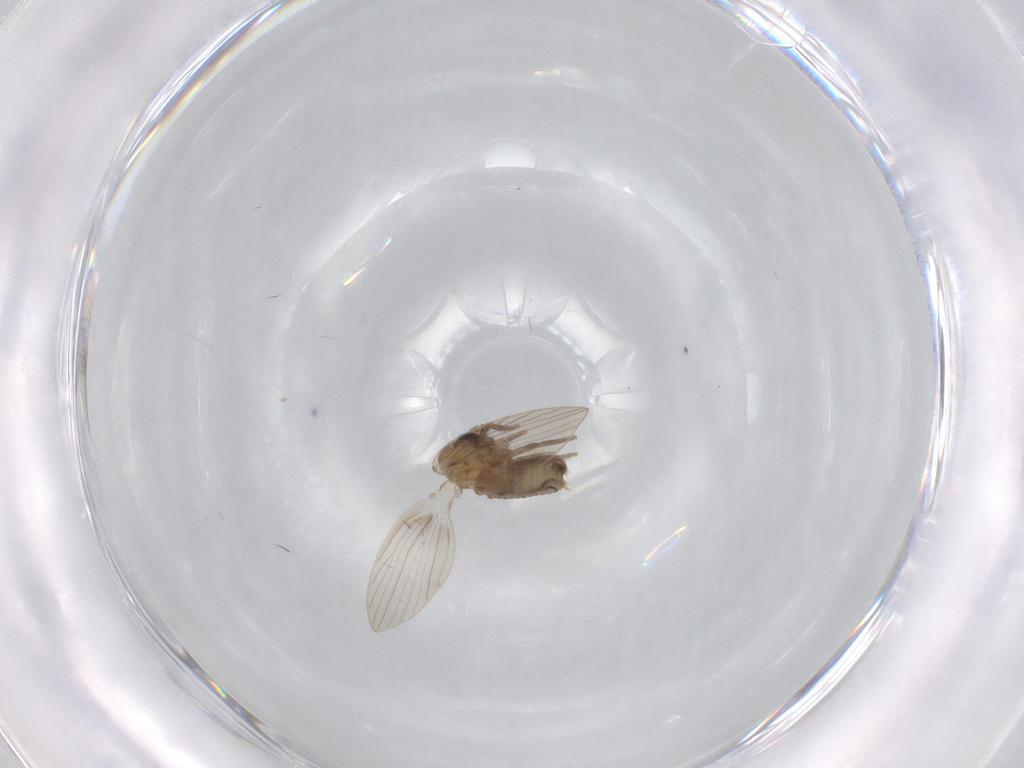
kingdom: Animalia
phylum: Arthropoda
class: Insecta
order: Diptera
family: Psychodidae
